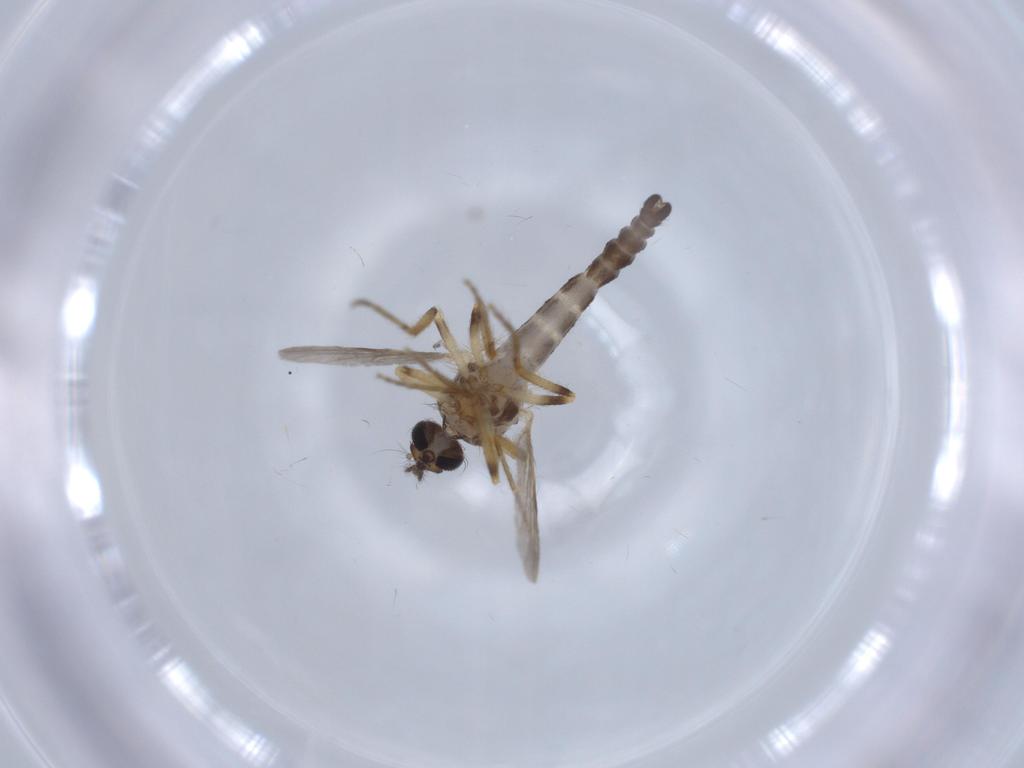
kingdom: Animalia
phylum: Arthropoda
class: Insecta
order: Diptera
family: Ceratopogonidae
